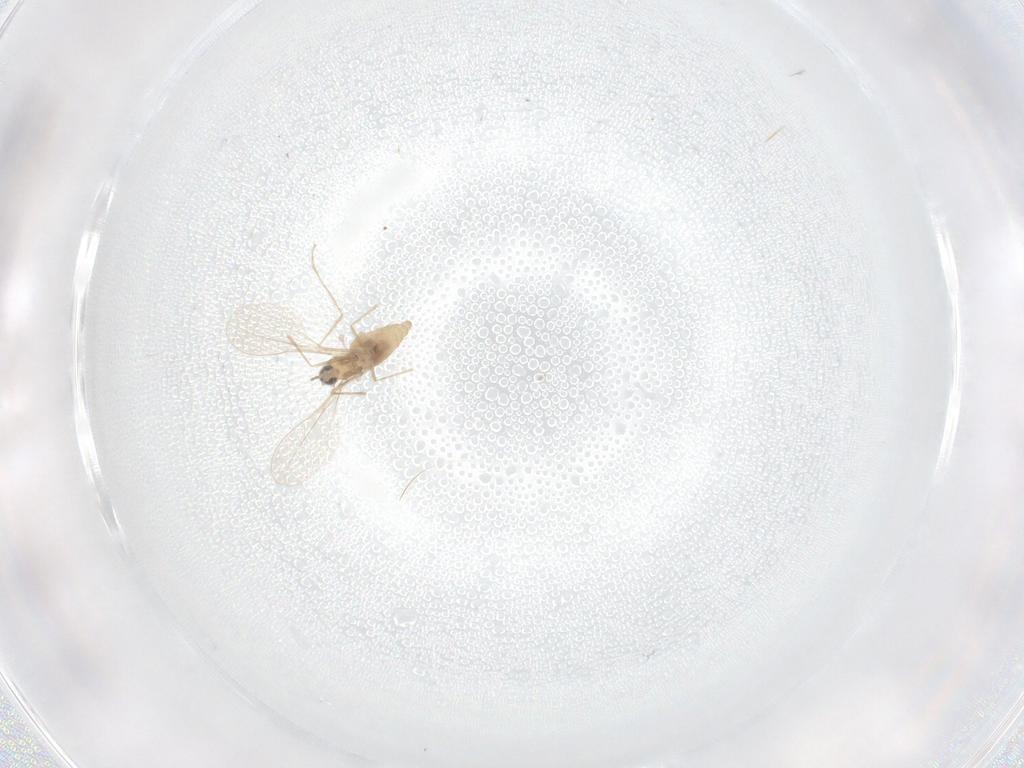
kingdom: Animalia
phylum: Arthropoda
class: Insecta
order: Diptera
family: Cecidomyiidae
